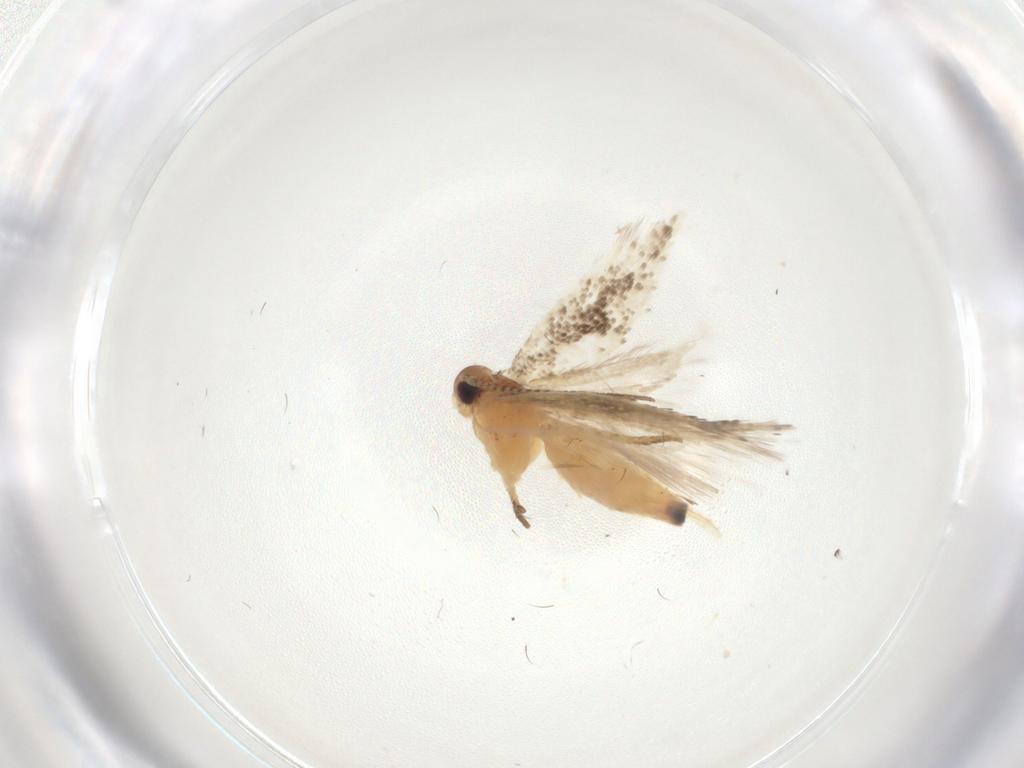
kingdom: Animalia
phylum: Arthropoda
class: Insecta
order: Lepidoptera
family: Gelechiidae
